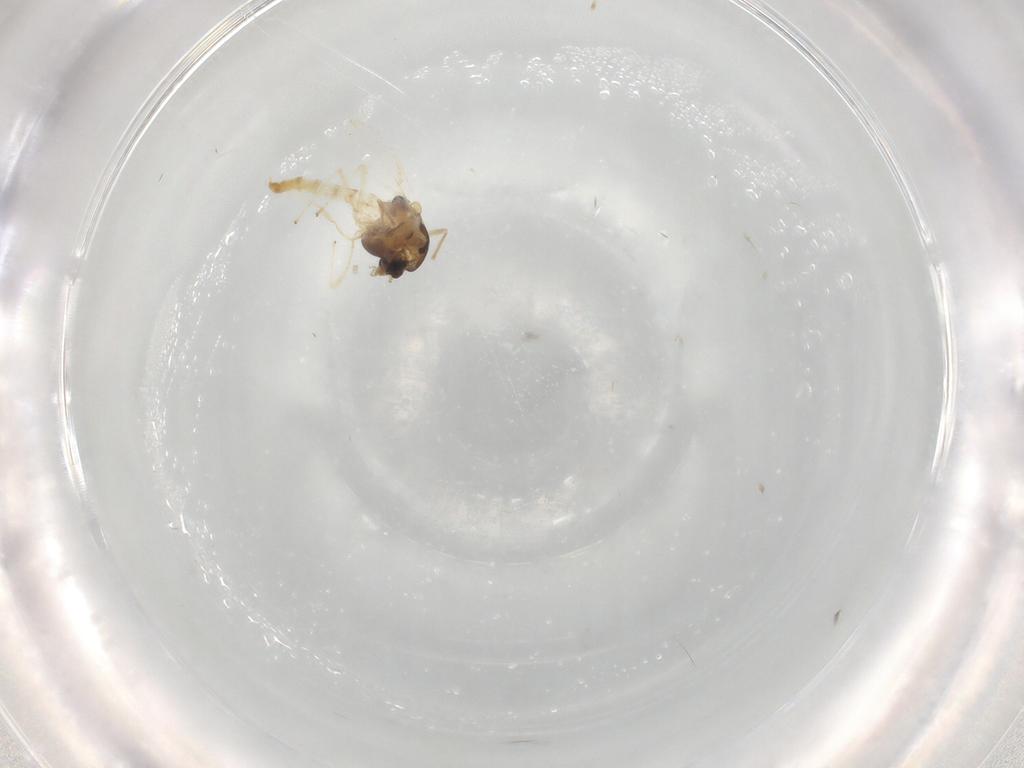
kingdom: Animalia
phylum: Arthropoda
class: Insecta
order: Diptera
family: Chironomidae
